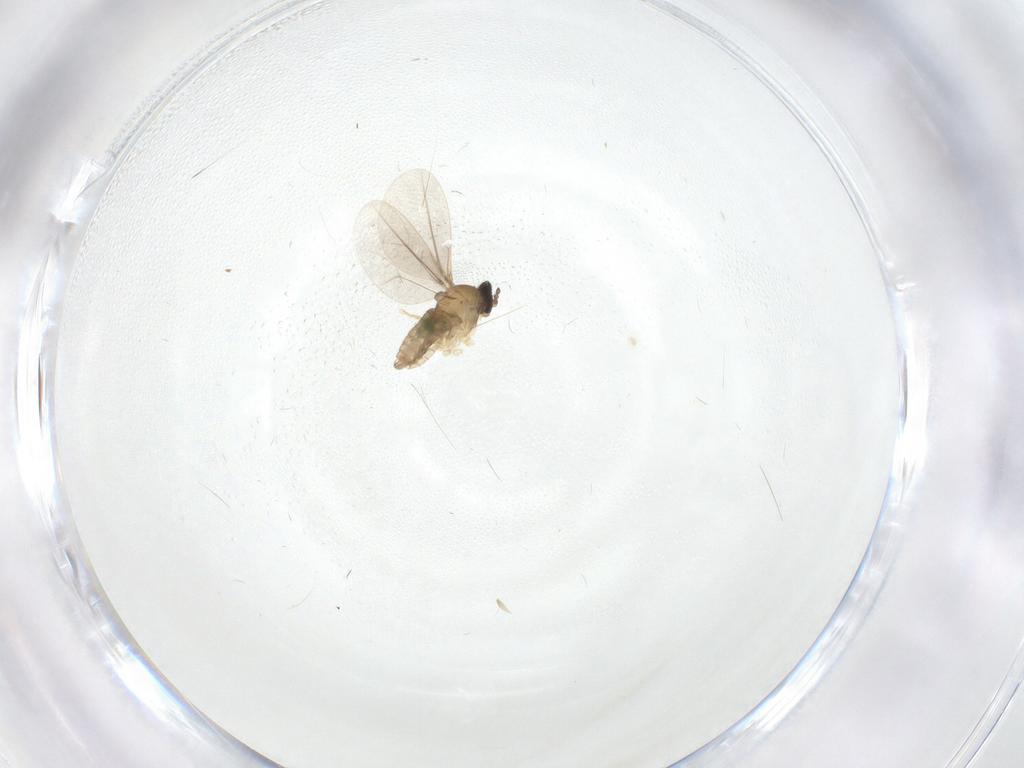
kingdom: Animalia
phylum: Arthropoda
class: Insecta
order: Diptera
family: Cecidomyiidae
